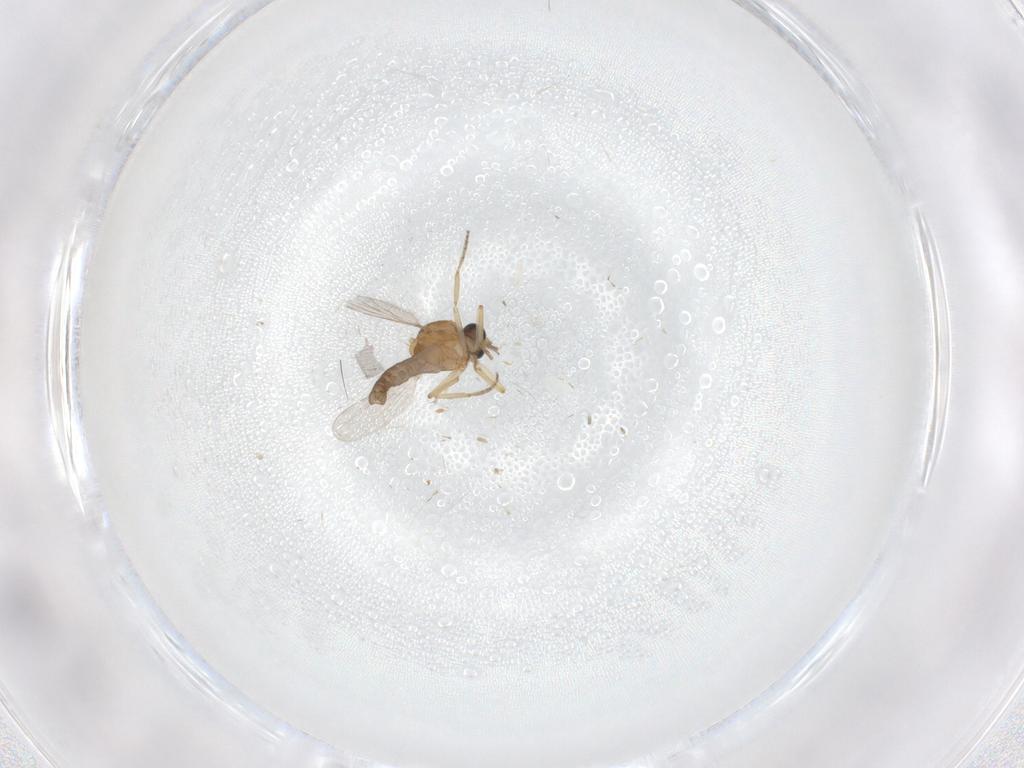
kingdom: Animalia
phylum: Arthropoda
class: Insecta
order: Diptera
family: Ceratopogonidae
